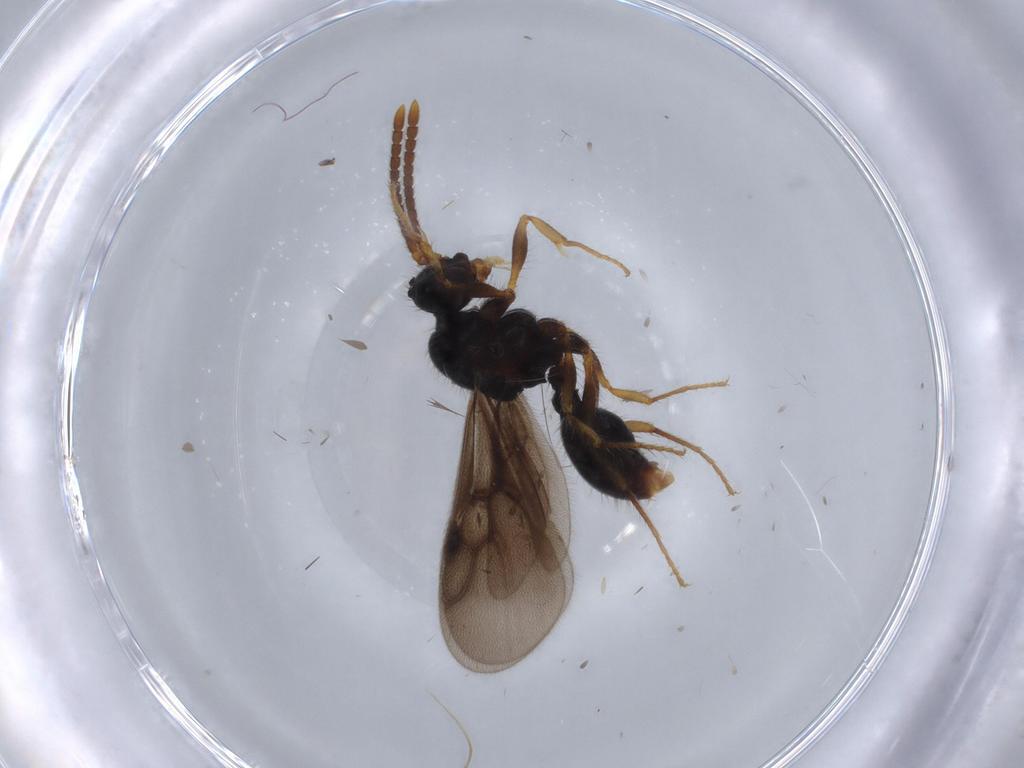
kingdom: Animalia
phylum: Arthropoda
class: Insecta
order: Hymenoptera
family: Formicidae
